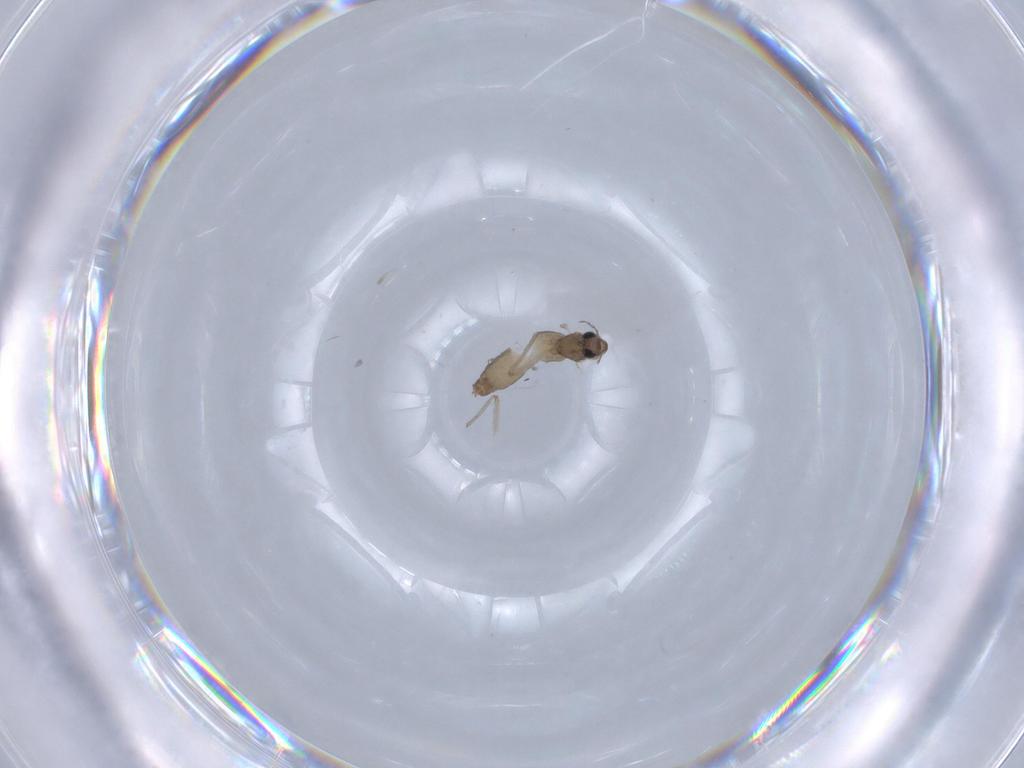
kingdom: Animalia
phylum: Arthropoda
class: Insecta
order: Diptera
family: Chironomidae
